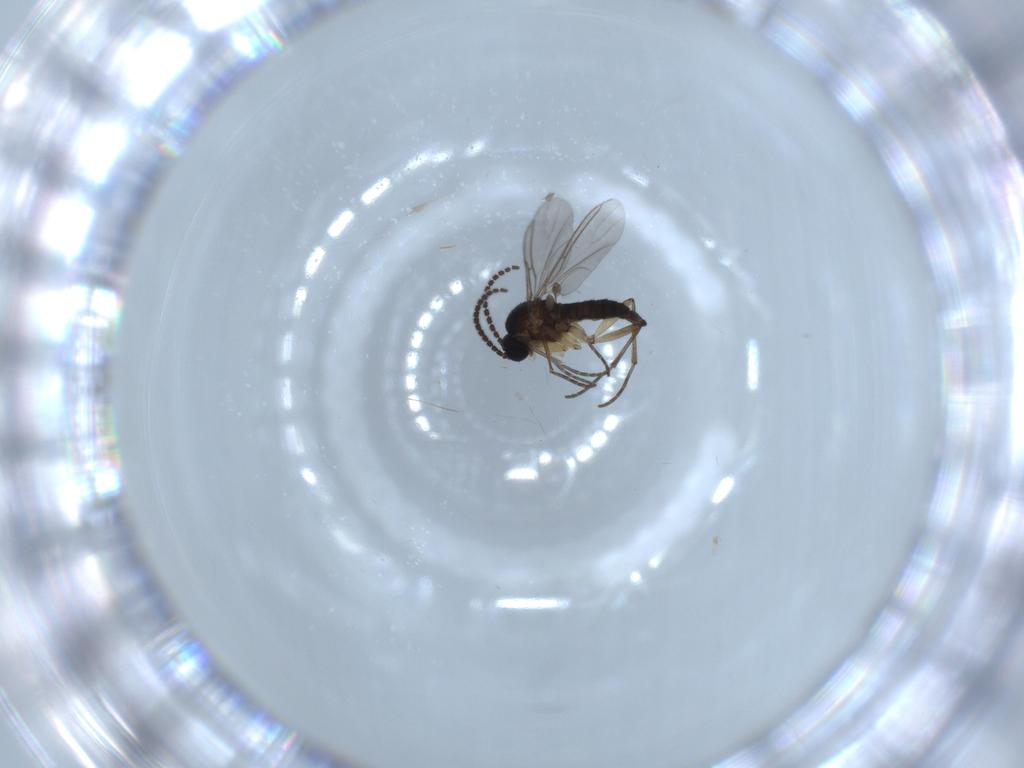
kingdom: Animalia
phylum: Arthropoda
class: Insecta
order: Diptera
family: Sciaridae
